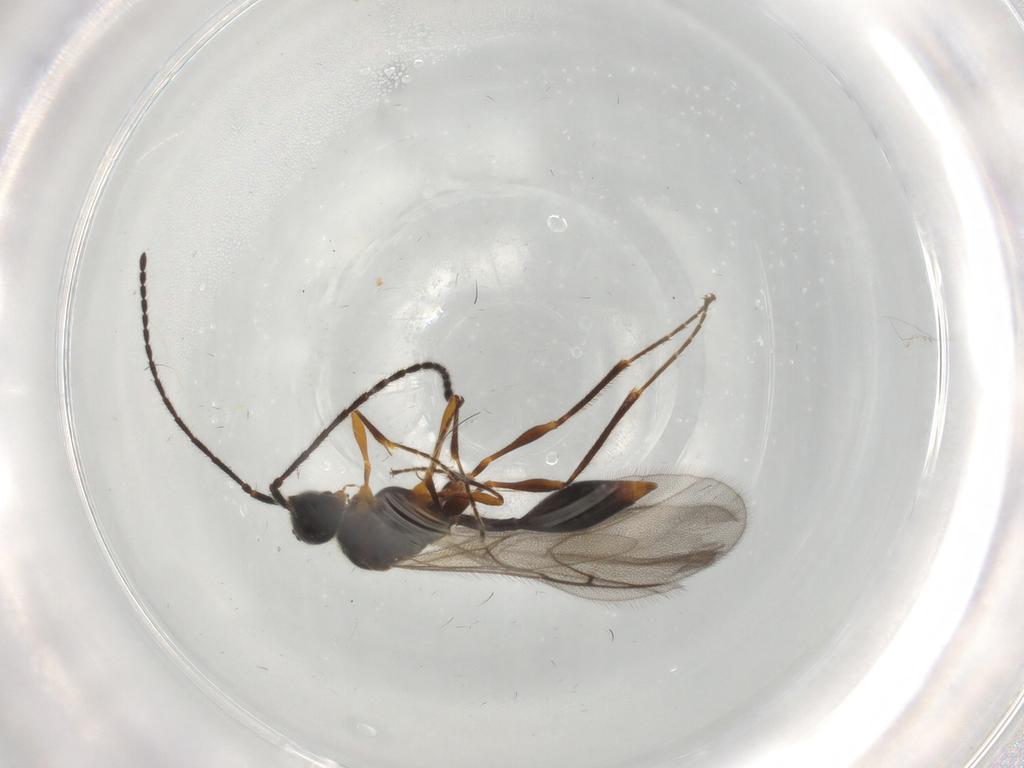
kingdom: Animalia
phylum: Arthropoda
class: Insecta
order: Hymenoptera
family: Diapriidae
